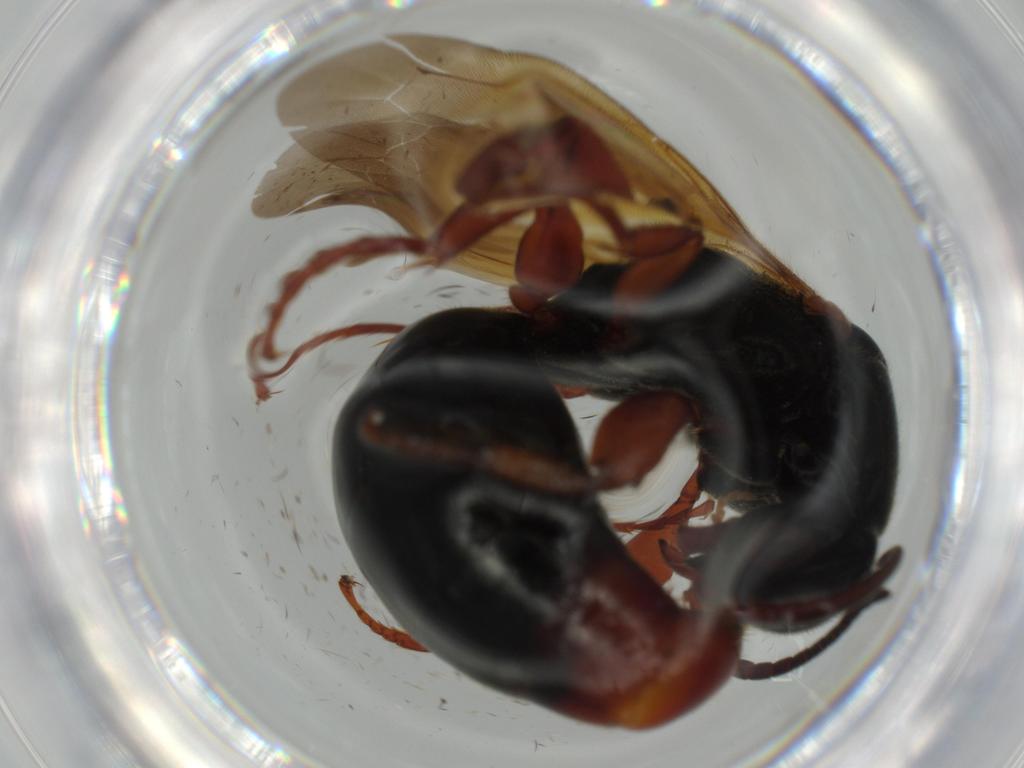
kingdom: Animalia
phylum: Arthropoda
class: Insecta
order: Hymenoptera
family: Bethylidae
